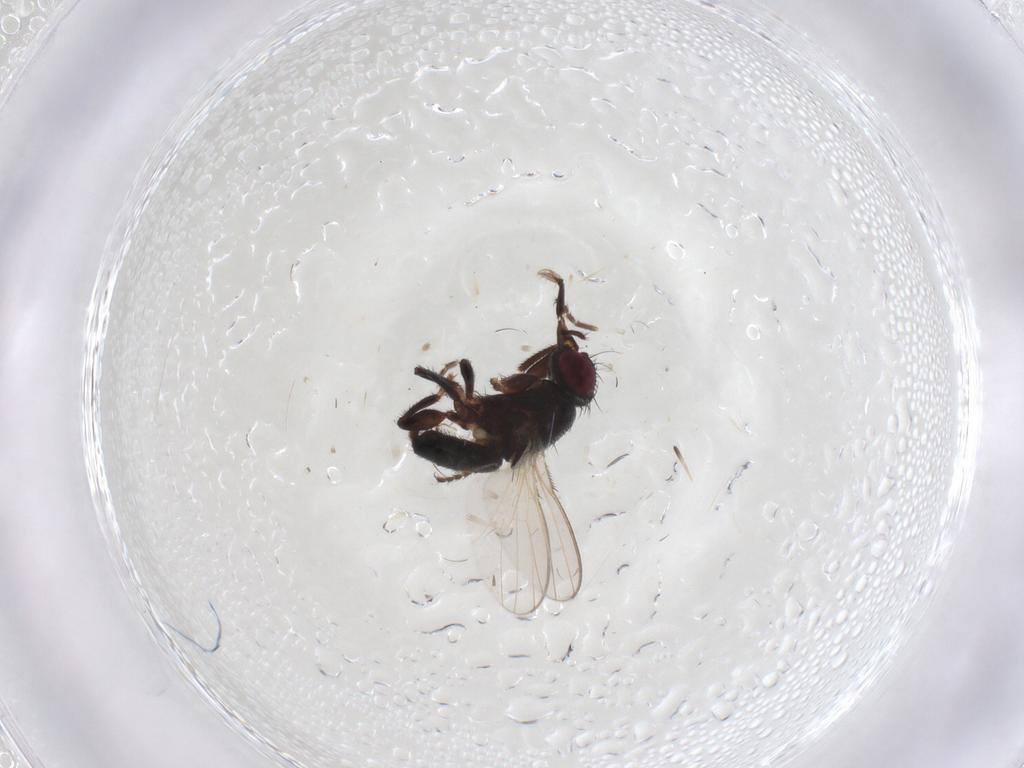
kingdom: Animalia
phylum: Arthropoda
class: Insecta
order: Diptera
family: Milichiidae
